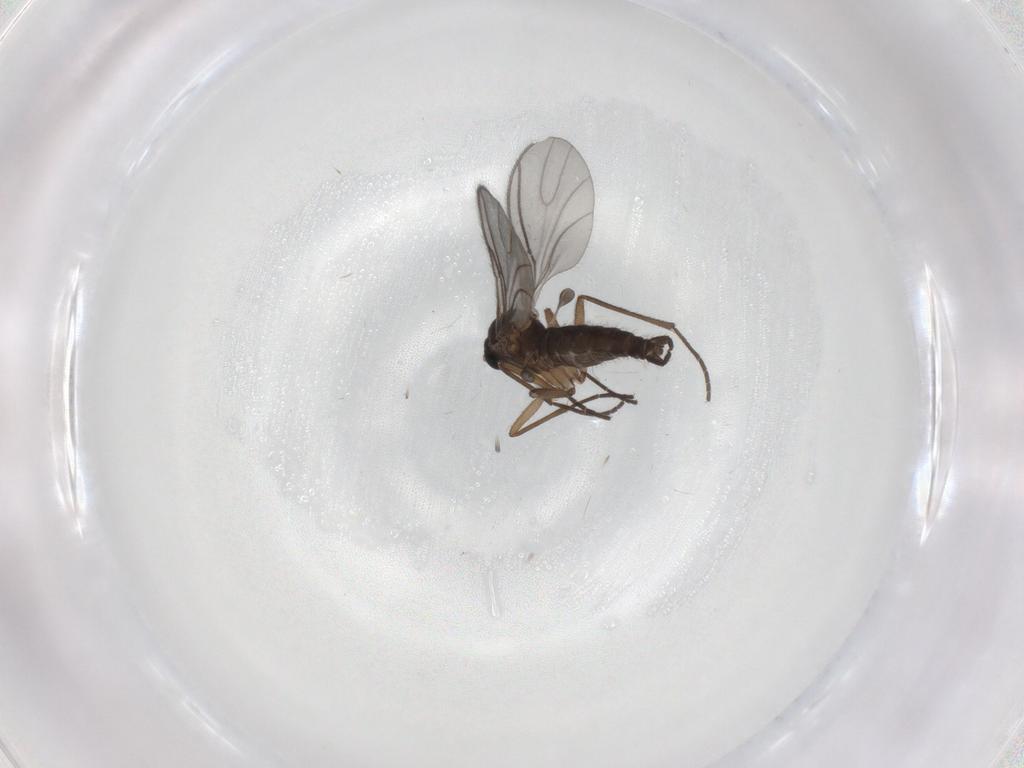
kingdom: Animalia
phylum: Arthropoda
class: Insecta
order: Diptera
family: Sciaridae
